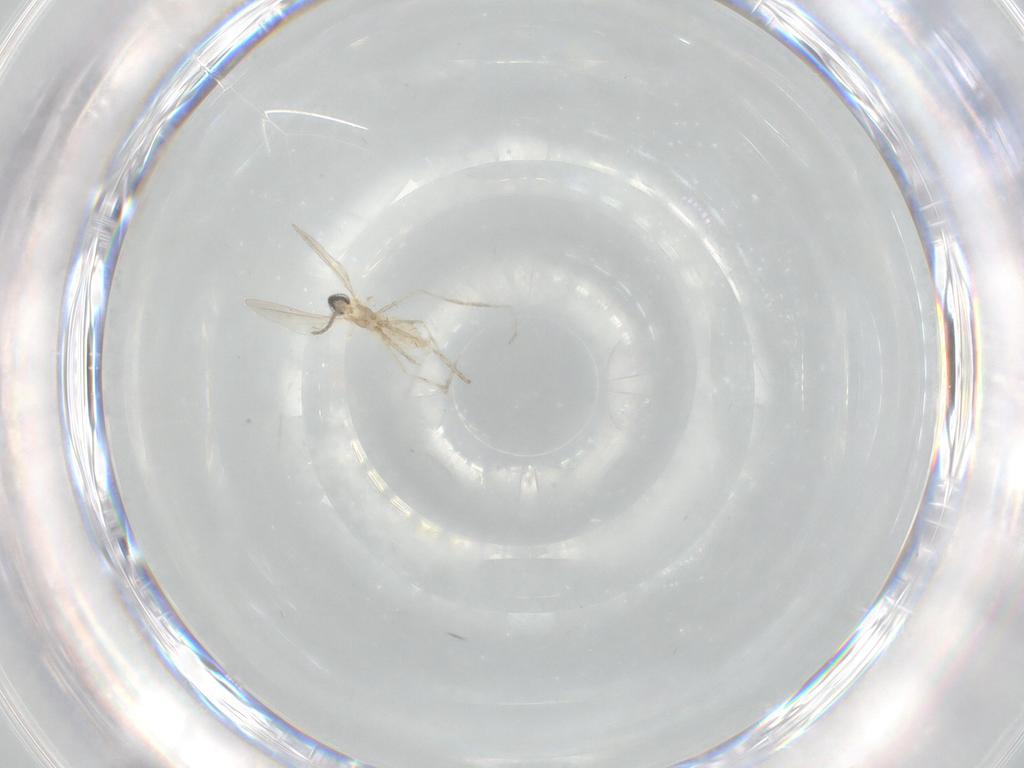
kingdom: Animalia
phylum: Arthropoda
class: Insecta
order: Diptera
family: Cecidomyiidae
